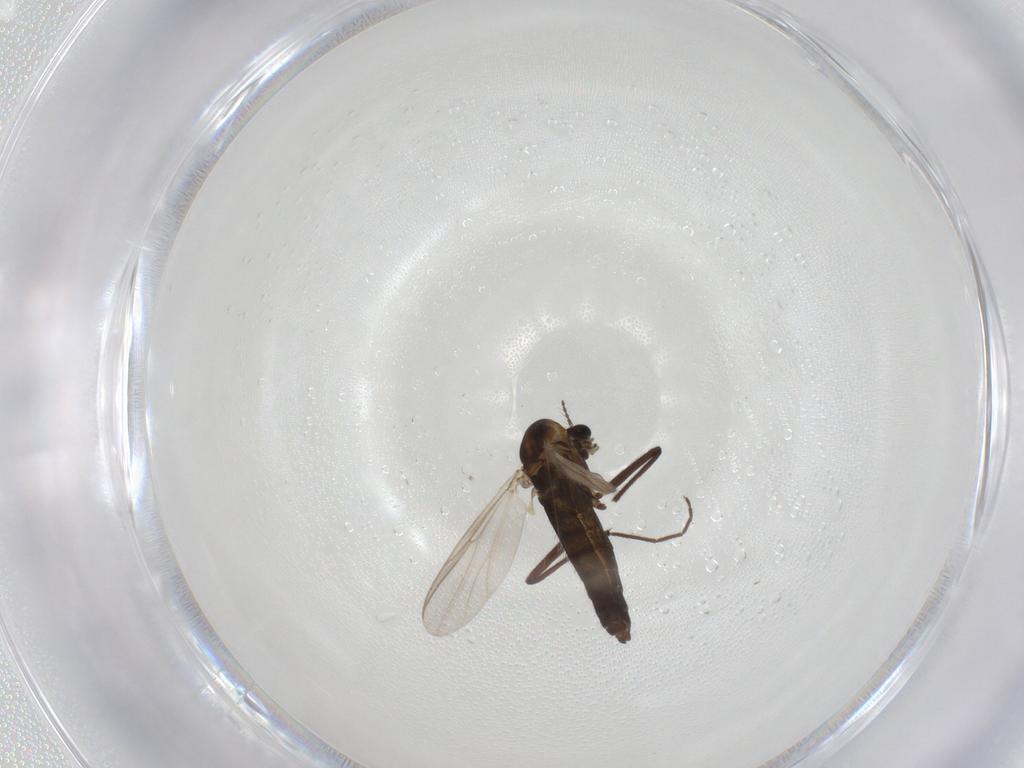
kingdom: Animalia
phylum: Arthropoda
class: Insecta
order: Diptera
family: Chironomidae
